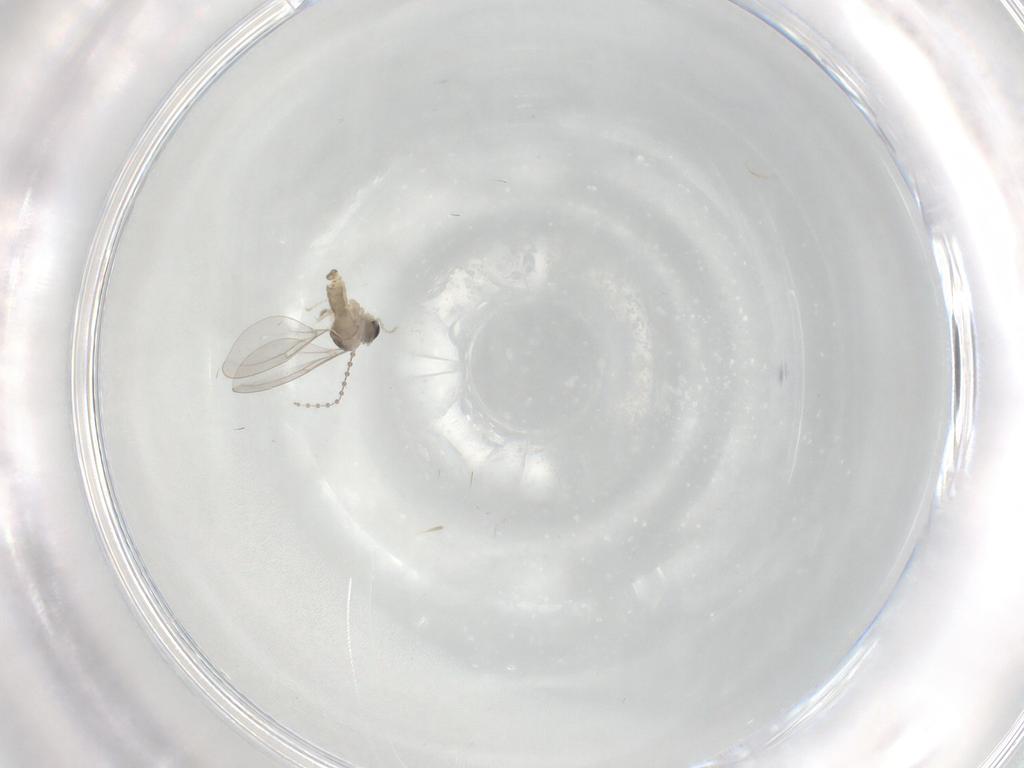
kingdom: Animalia
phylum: Arthropoda
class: Insecta
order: Diptera
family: Cecidomyiidae
